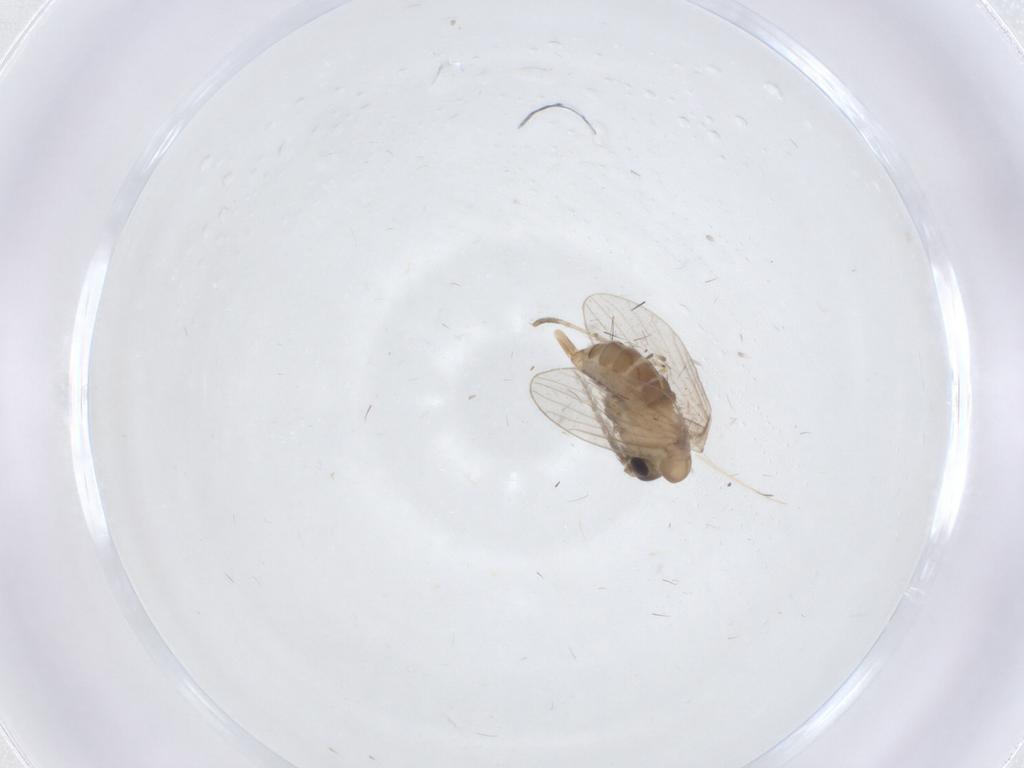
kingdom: Animalia
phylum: Arthropoda
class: Insecta
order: Diptera
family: Psychodidae
